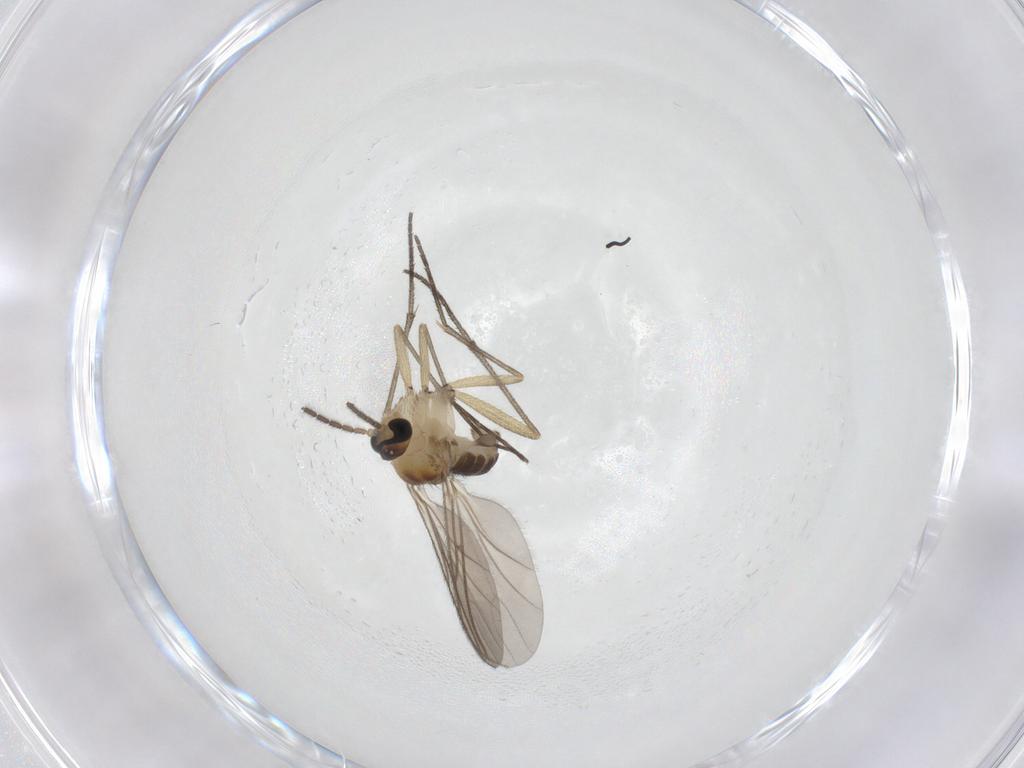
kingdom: Animalia
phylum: Arthropoda
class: Insecta
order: Diptera
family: Sciaridae
